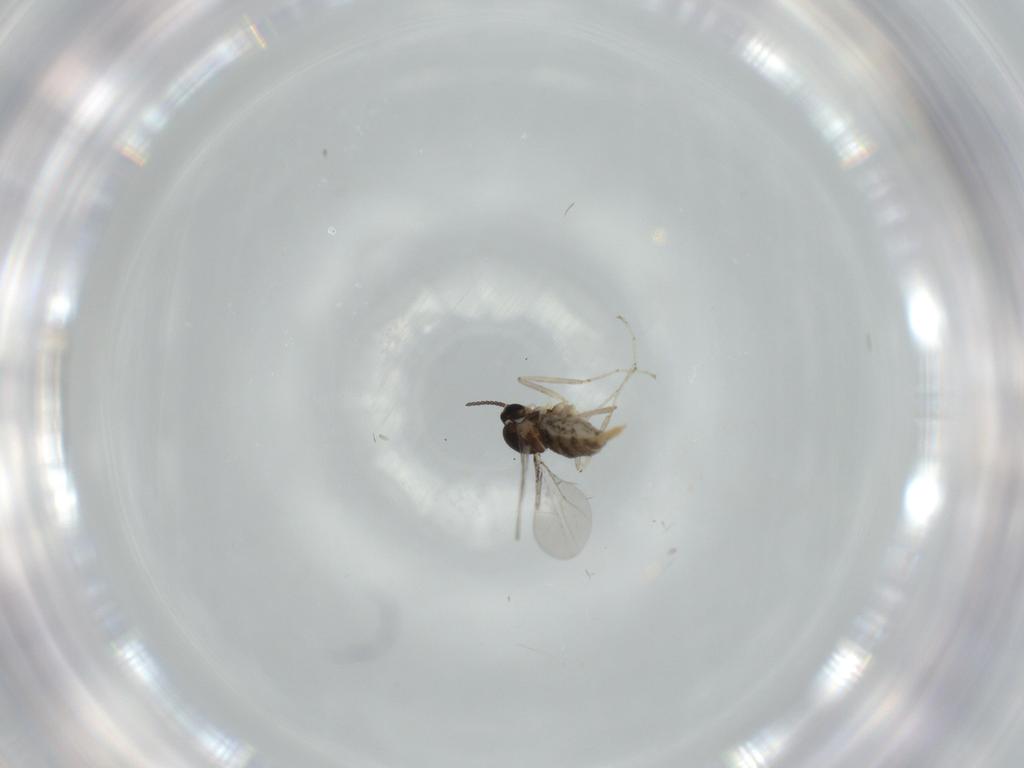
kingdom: Animalia
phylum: Arthropoda
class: Insecta
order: Diptera
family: Cecidomyiidae
